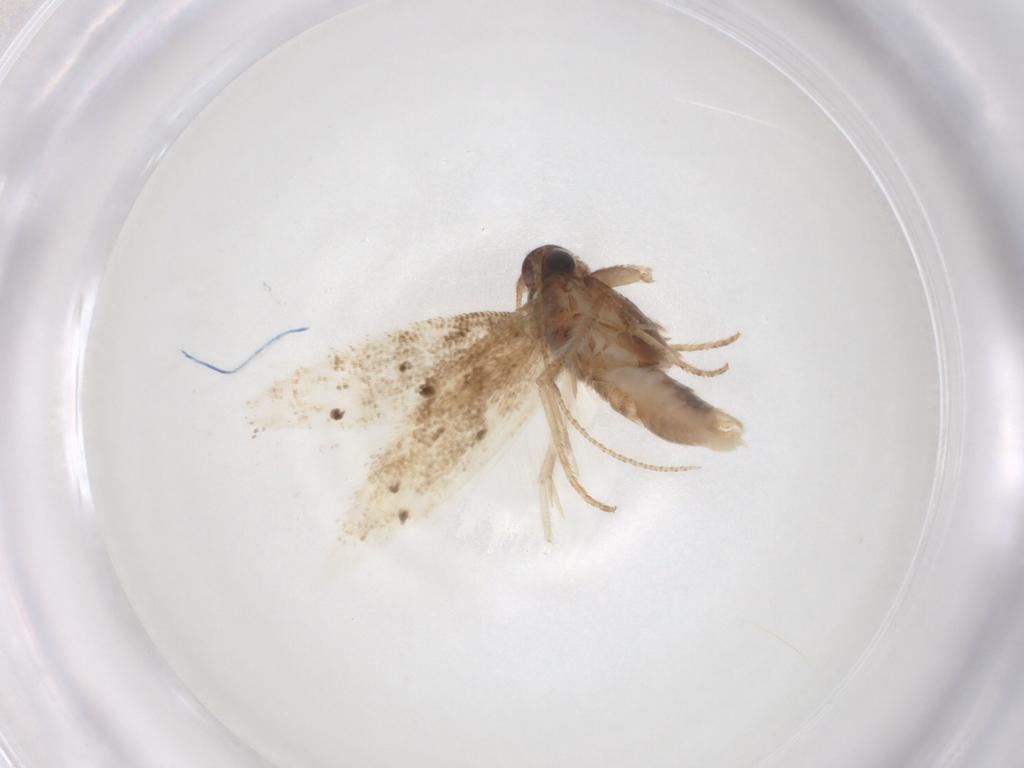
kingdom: Animalia
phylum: Arthropoda
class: Insecta
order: Lepidoptera
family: Gelechiidae
